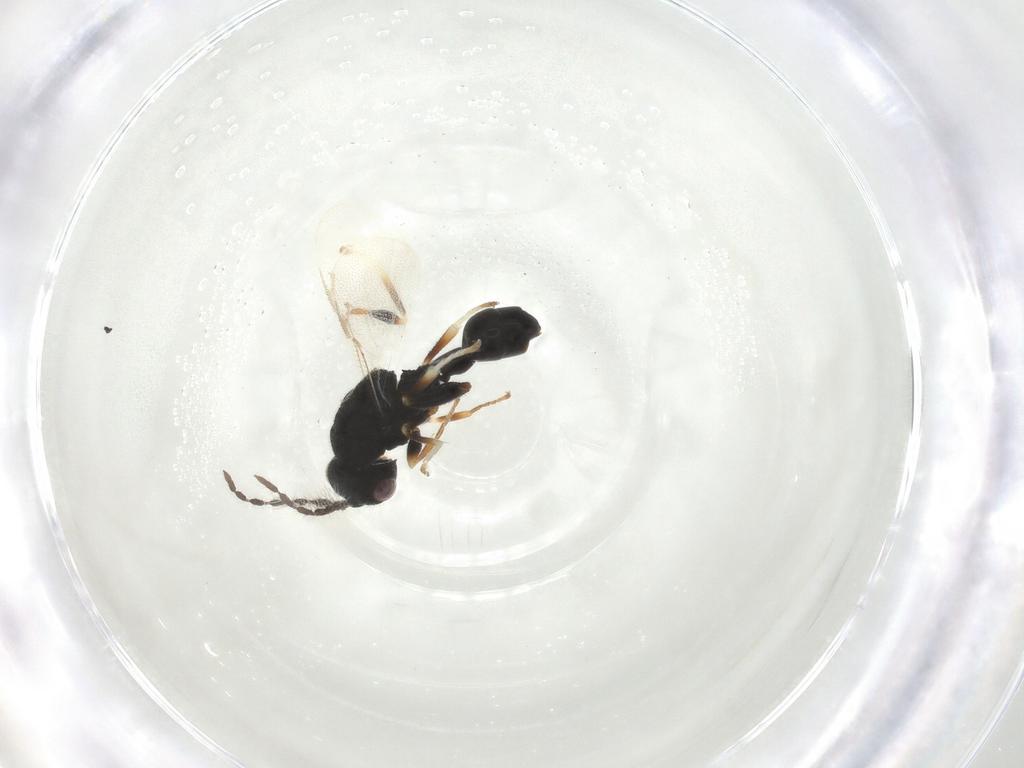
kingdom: Animalia
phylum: Arthropoda
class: Insecta
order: Hymenoptera
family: Eurytomidae
